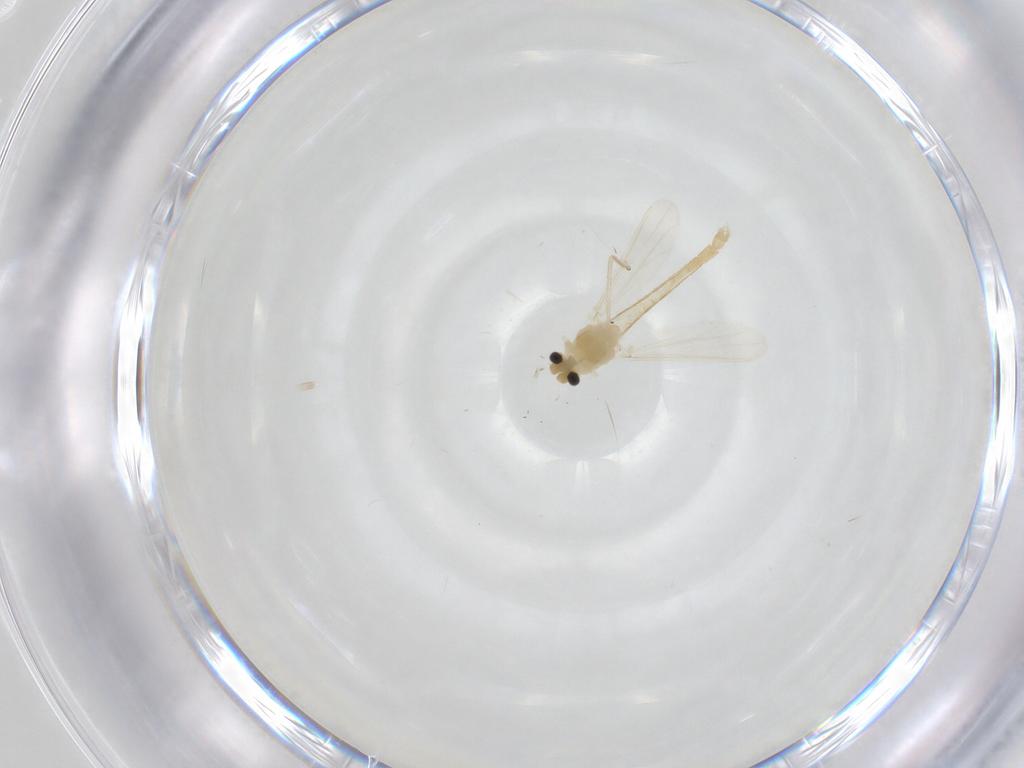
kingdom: Animalia
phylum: Arthropoda
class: Insecta
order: Diptera
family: Chironomidae
